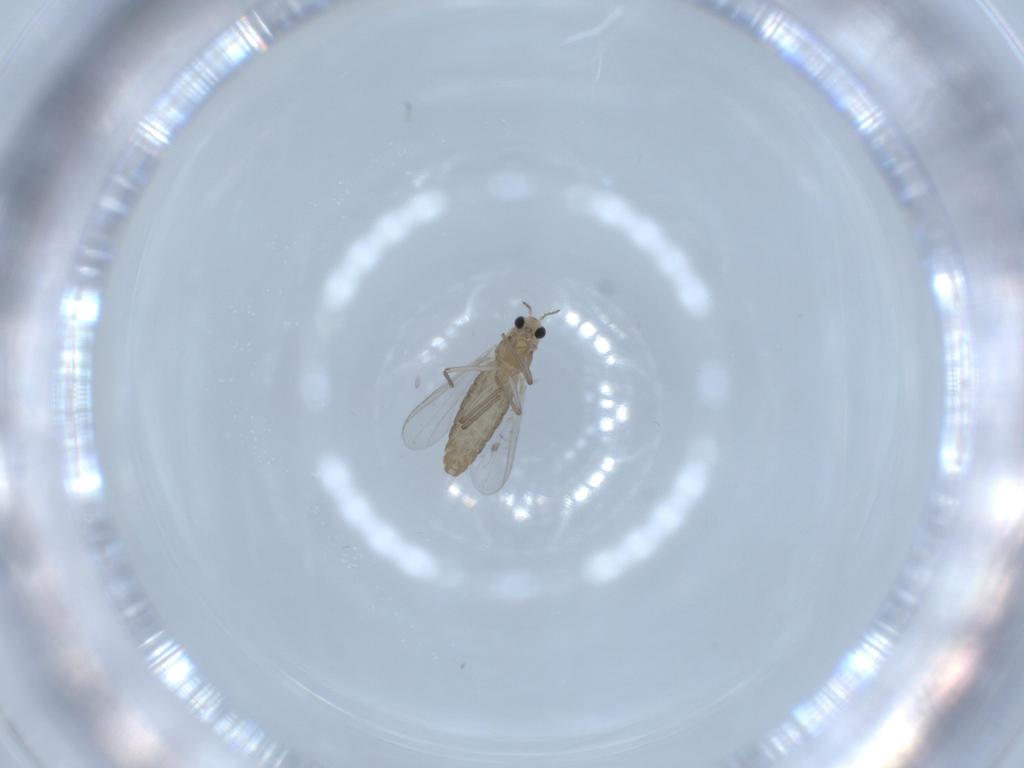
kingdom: Animalia
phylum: Arthropoda
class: Insecta
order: Diptera
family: Chironomidae
